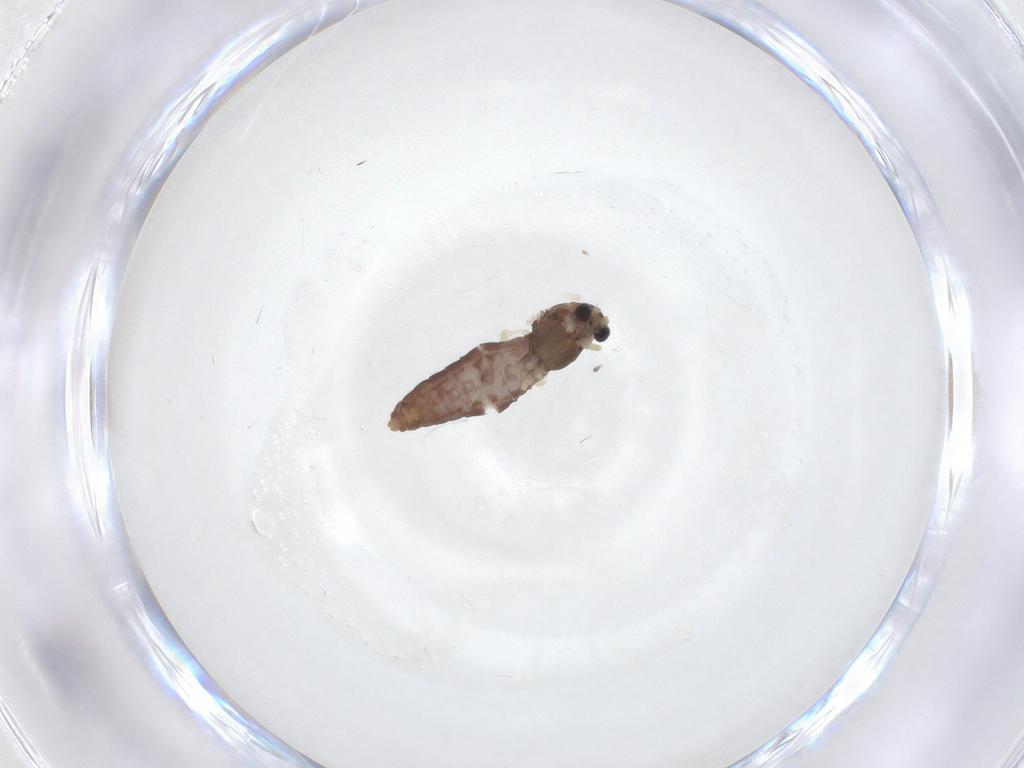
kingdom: Animalia
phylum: Arthropoda
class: Insecta
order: Diptera
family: Chironomidae
